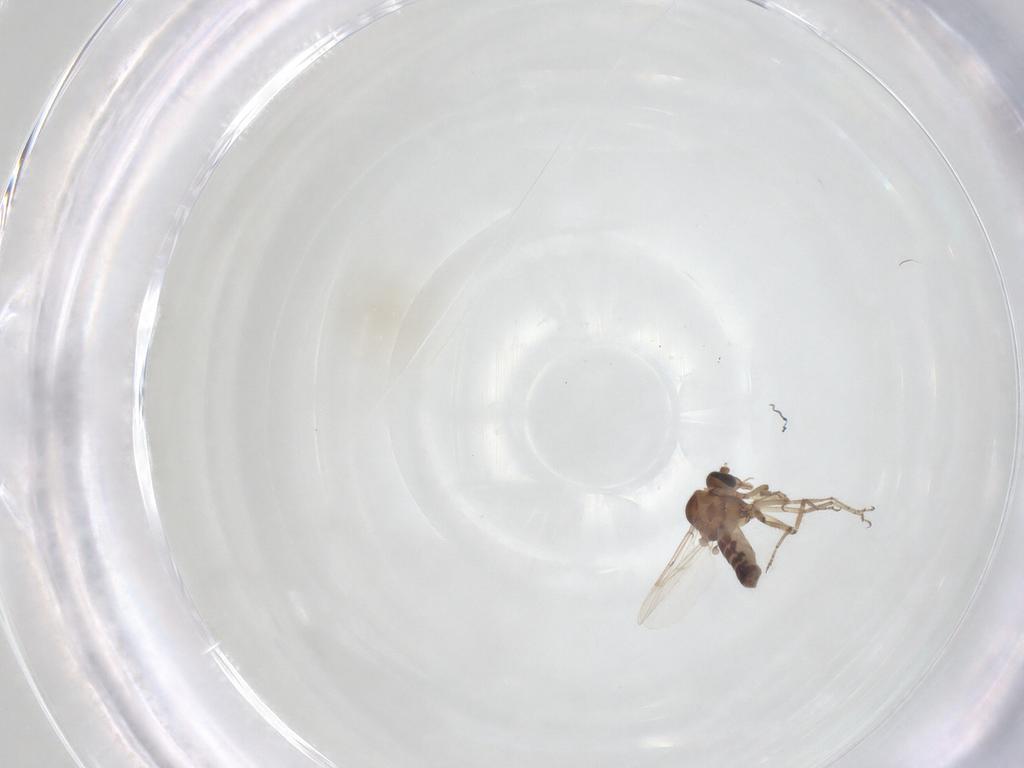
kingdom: Animalia
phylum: Arthropoda
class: Insecta
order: Diptera
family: Ceratopogonidae
